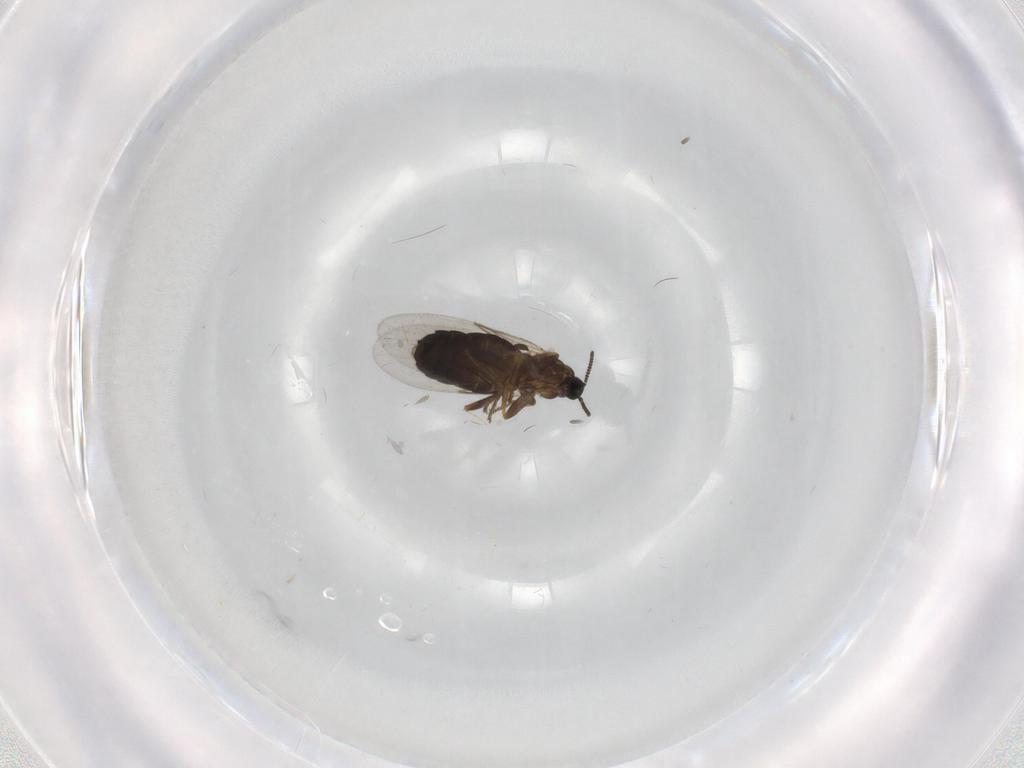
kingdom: Animalia
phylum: Arthropoda
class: Insecta
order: Diptera
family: Scatopsidae
